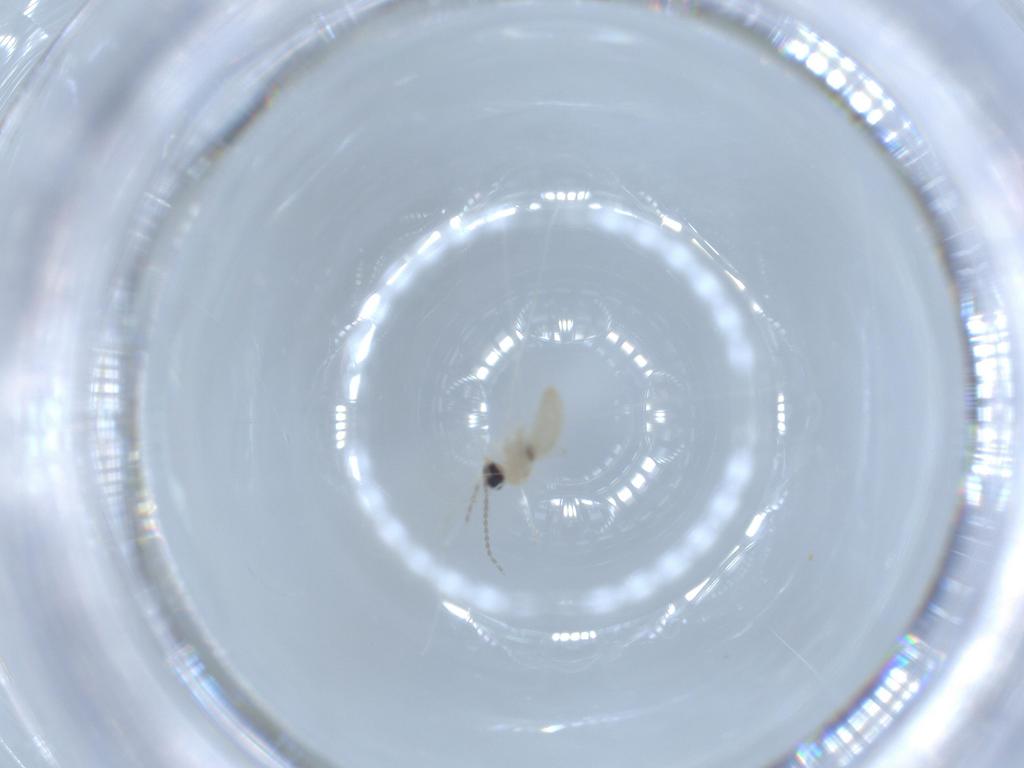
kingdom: Animalia
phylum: Arthropoda
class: Insecta
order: Diptera
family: Cecidomyiidae
